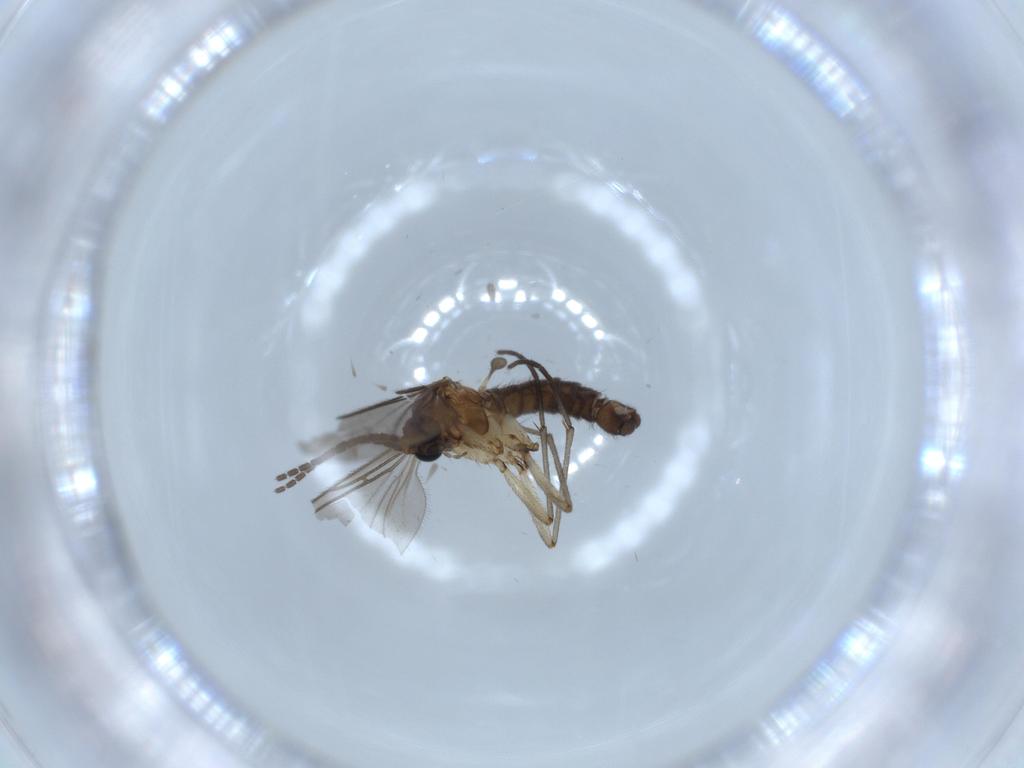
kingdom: Animalia
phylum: Arthropoda
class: Insecta
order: Diptera
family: Sciaridae
